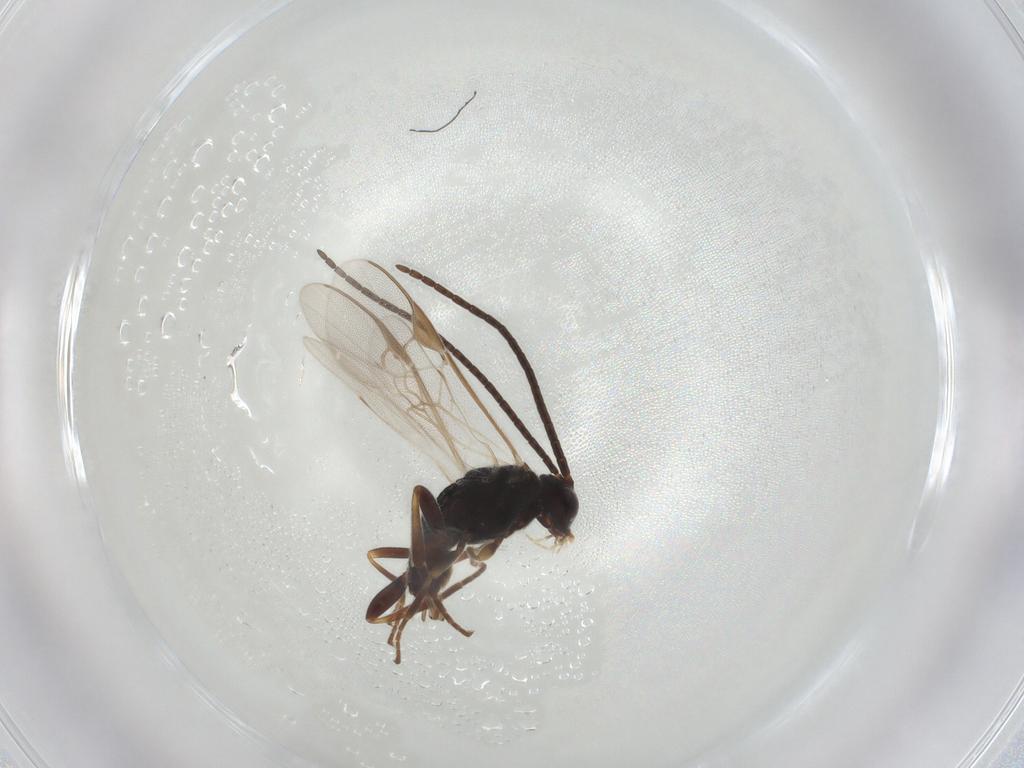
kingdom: Animalia
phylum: Arthropoda
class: Insecta
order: Hymenoptera
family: Braconidae
